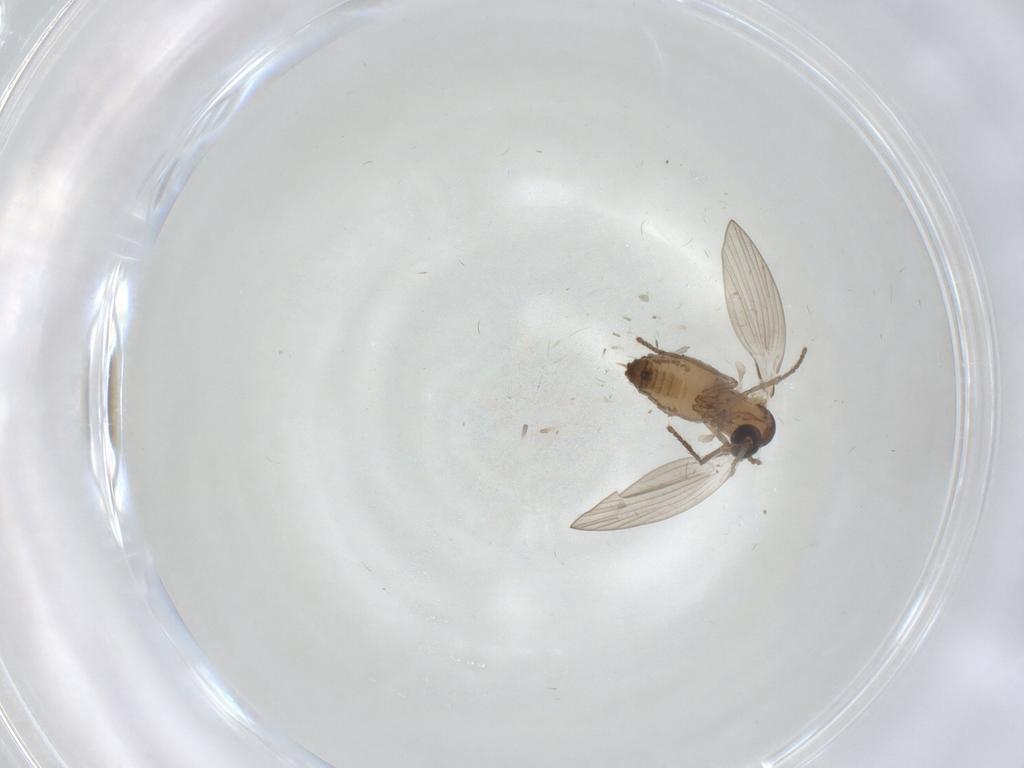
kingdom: Animalia
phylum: Arthropoda
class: Insecta
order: Diptera
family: Psychodidae
